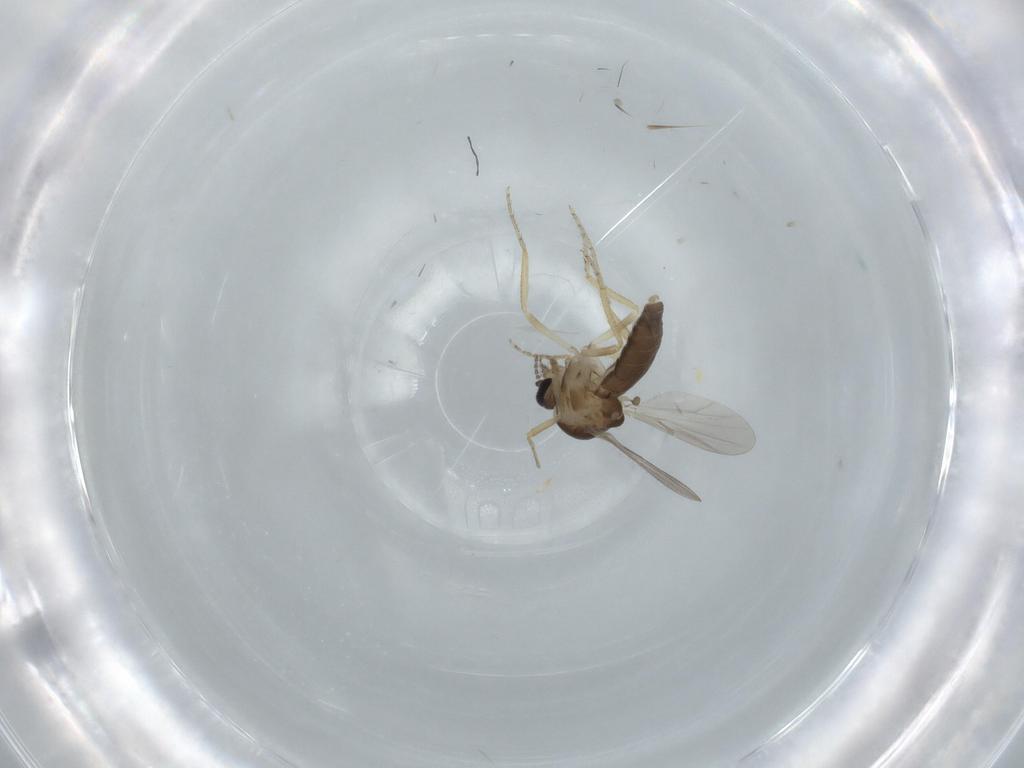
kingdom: Animalia
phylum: Arthropoda
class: Insecta
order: Diptera
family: Ceratopogonidae
